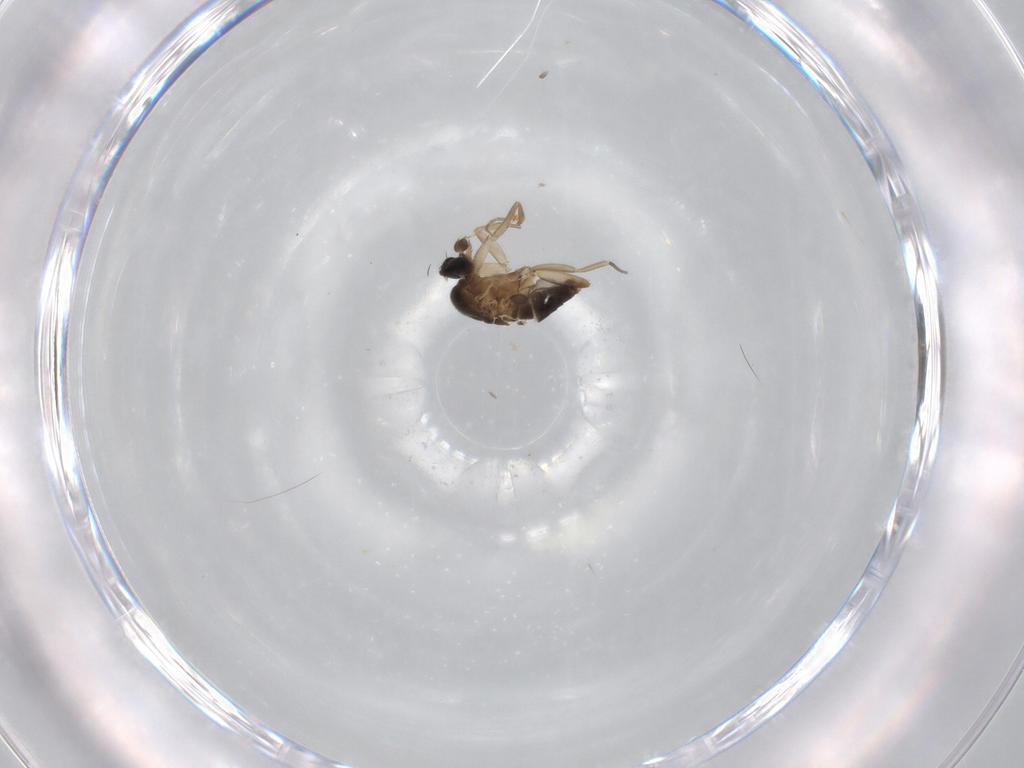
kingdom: Animalia
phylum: Arthropoda
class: Insecta
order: Diptera
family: Phoridae
